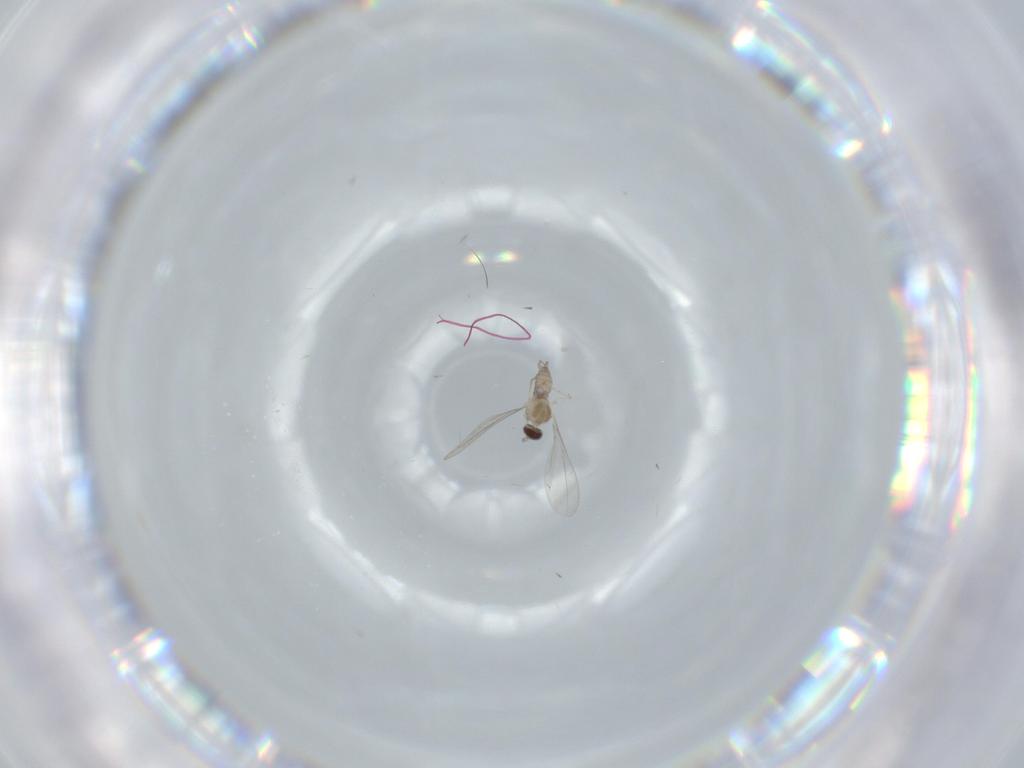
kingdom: Animalia
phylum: Arthropoda
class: Insecta
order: Diptera
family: Cecidomyiidae
